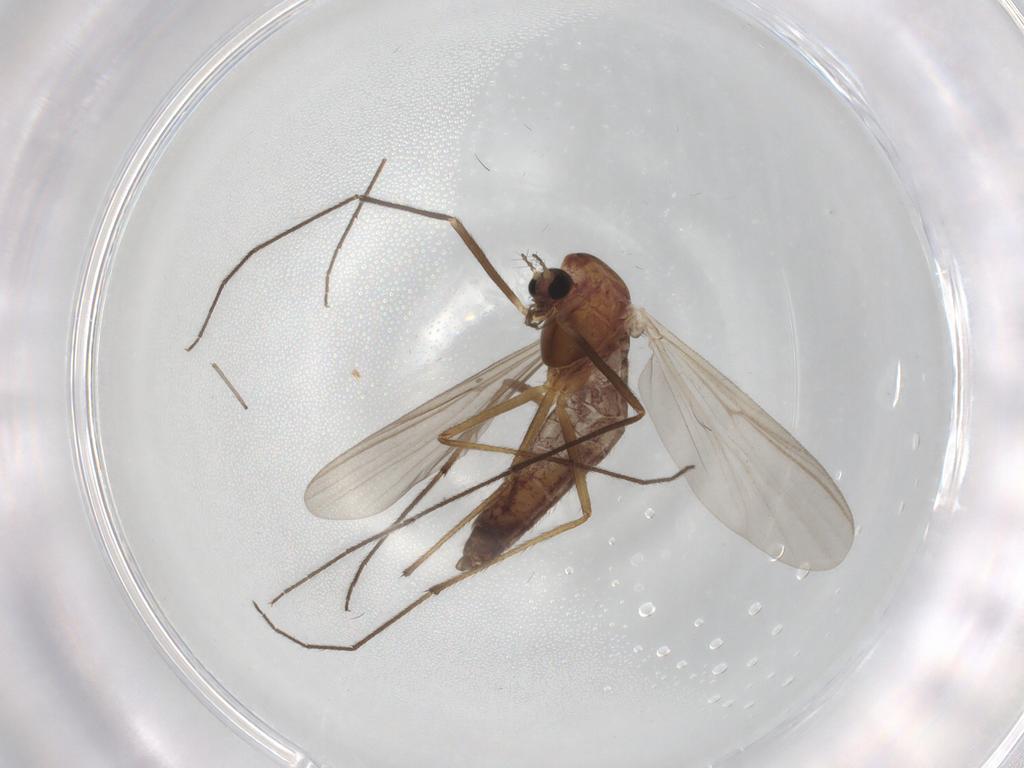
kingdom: Animalia
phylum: Arthropoda
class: Insecta
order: Diptera
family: Chironomidae
